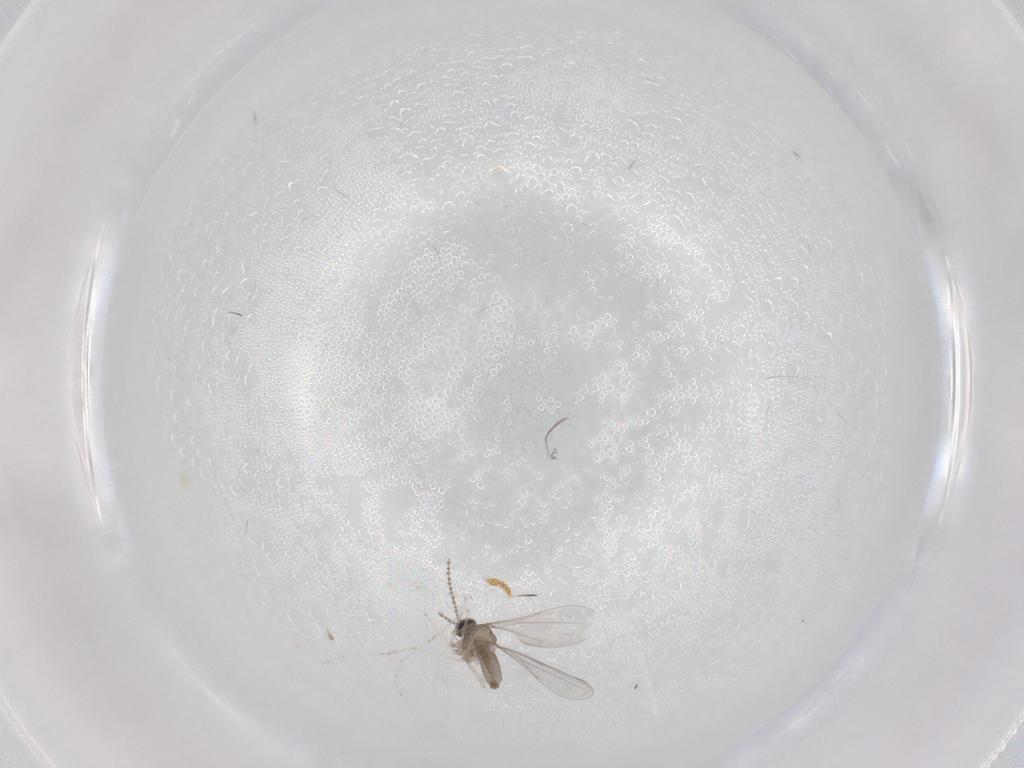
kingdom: Animalia
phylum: Arthropoda
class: Insecta
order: Diptera
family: Cecidomyiidae
